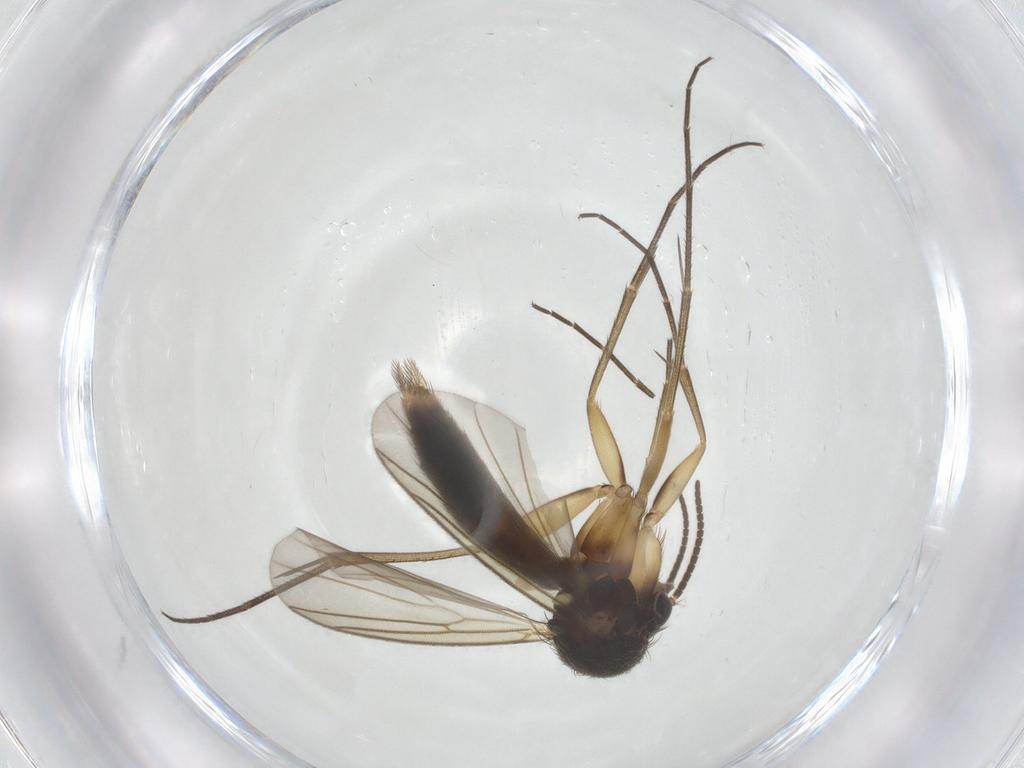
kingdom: Animalia
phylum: Arthropoda
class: Insecta
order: Diptera
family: Mycetophilidae
